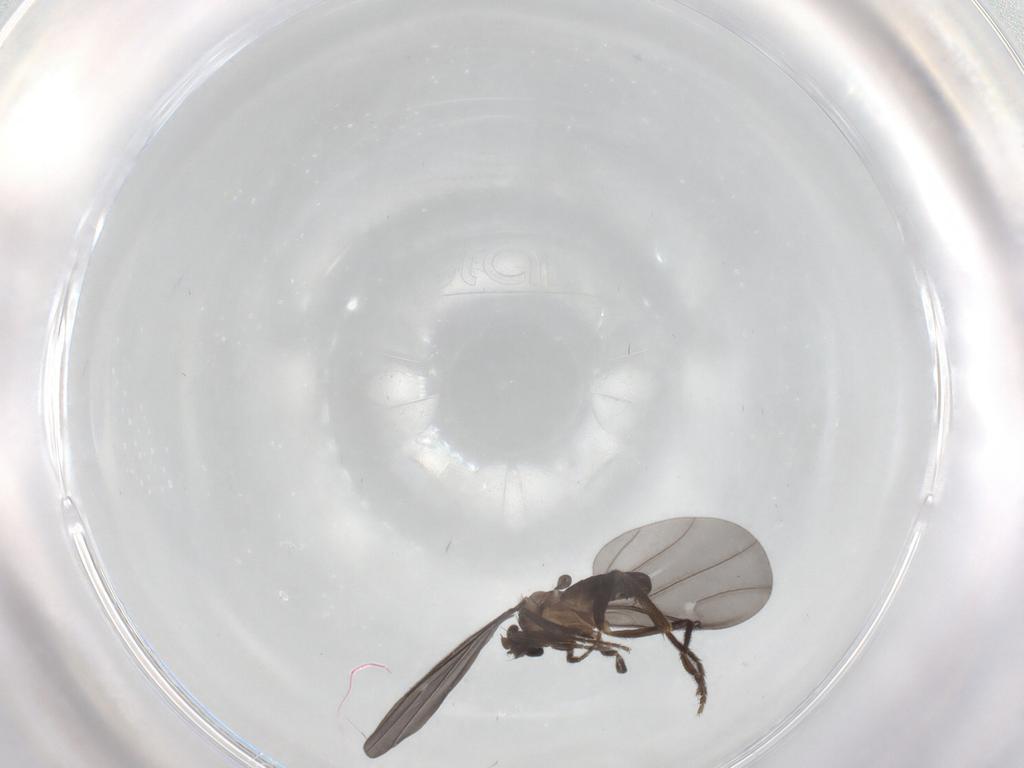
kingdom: Animalia
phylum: Arthropoda
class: Insecta
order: Diptera
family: Phoridae
